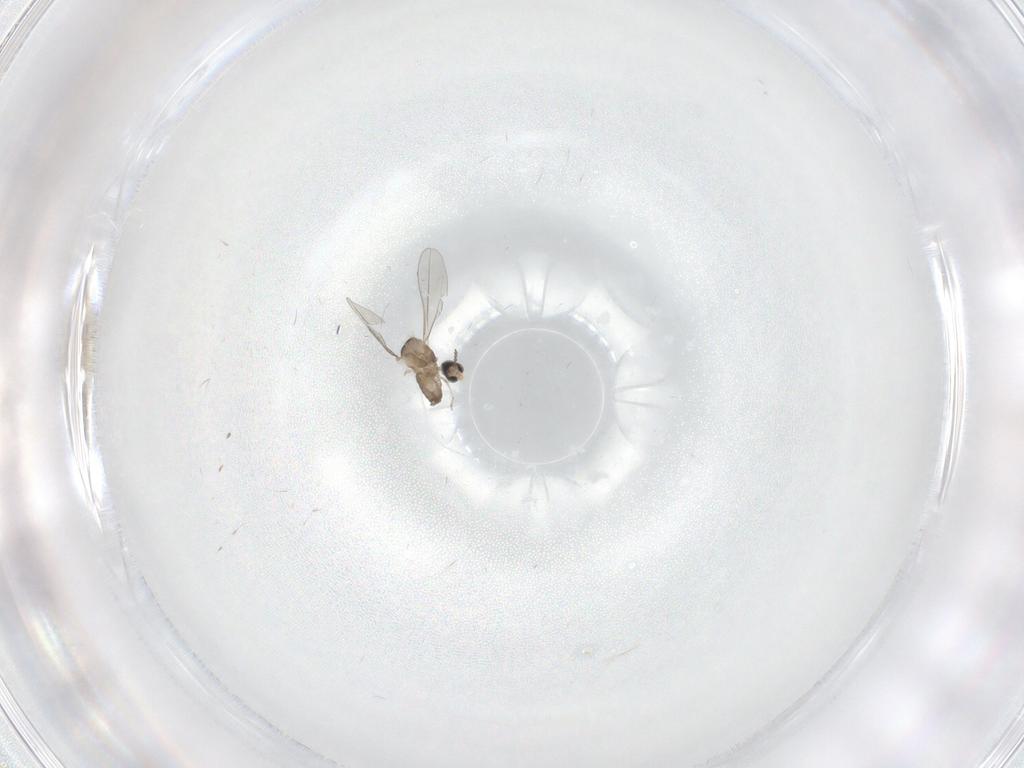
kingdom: Animalia
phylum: Arthropoda
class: Insecta
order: Diptera
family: Cecidomyiidae
